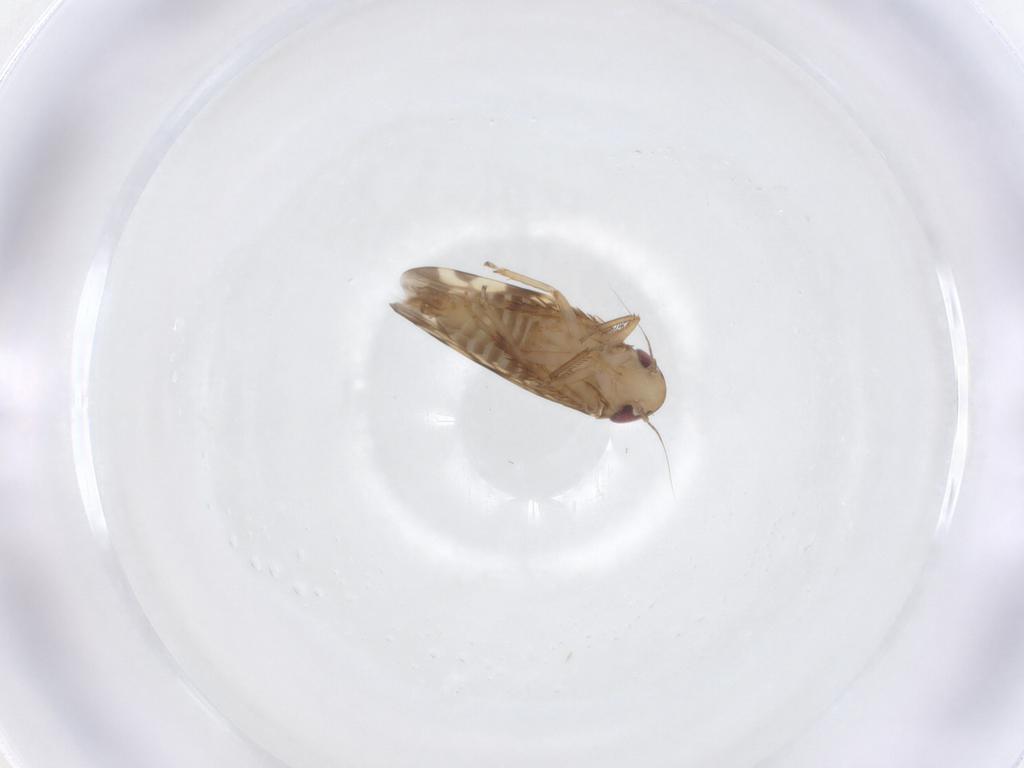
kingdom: Animalia
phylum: Arthropoda
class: Insecta
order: Hemiptera
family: Cicadellidae
